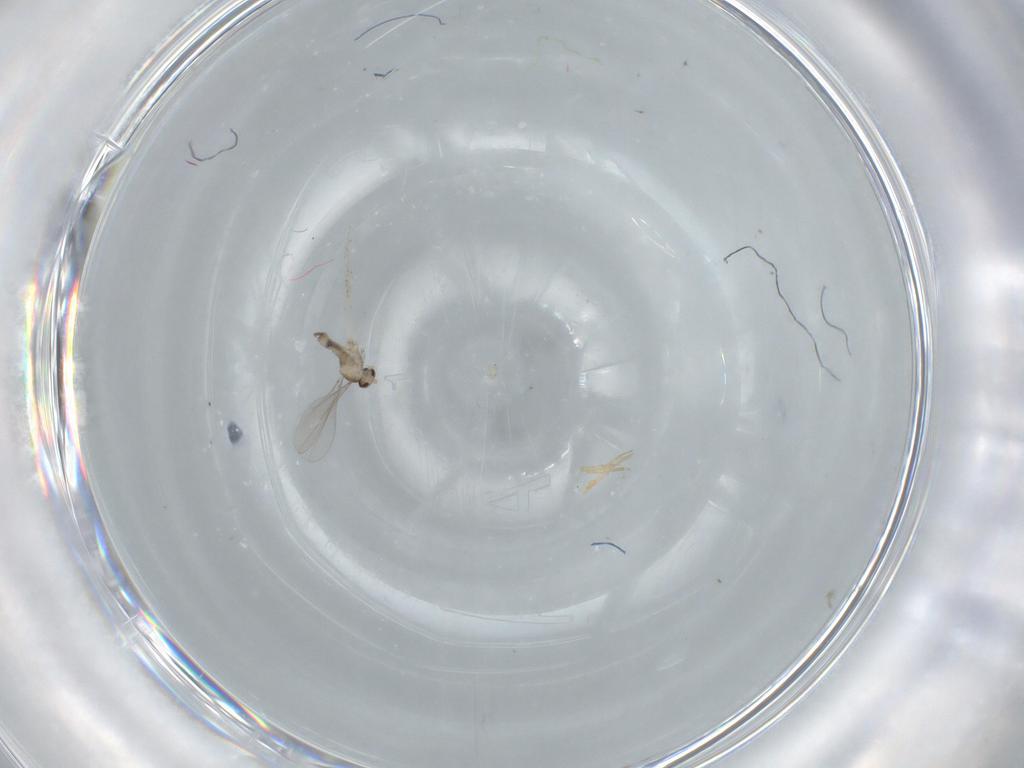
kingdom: Animalia
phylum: Arthropoda
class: Insecta
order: Diptera
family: Cecidomyiidae
